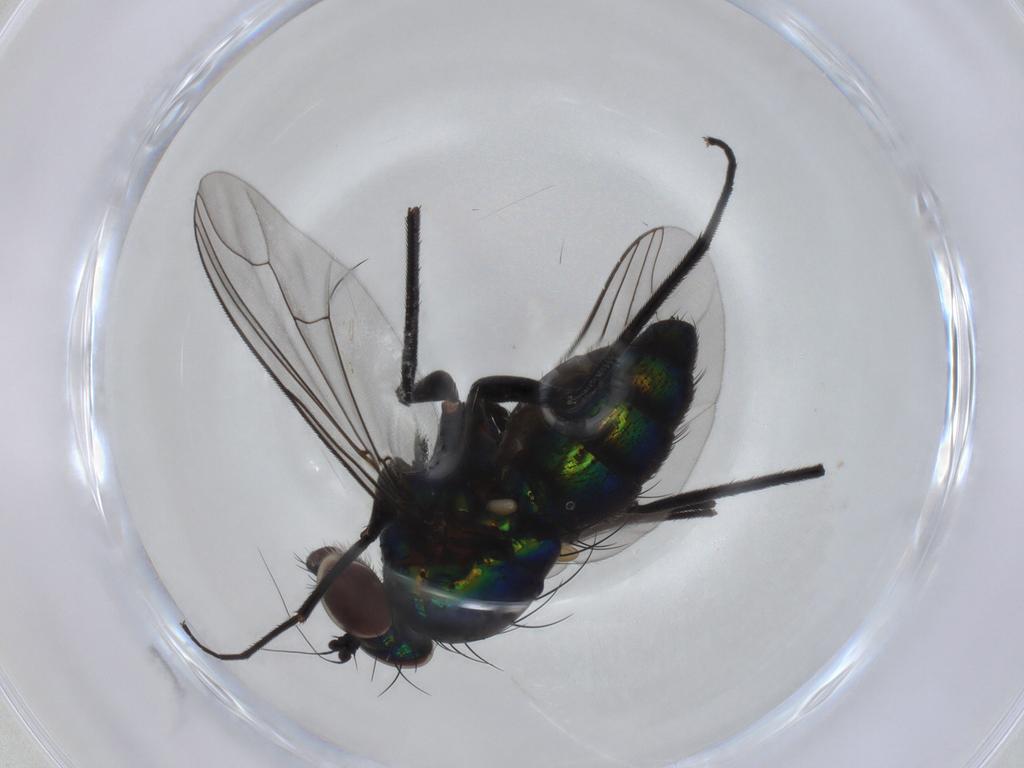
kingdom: Animalia
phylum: Arthropoda
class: Insecta
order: Diptera
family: Dolichopodidae
